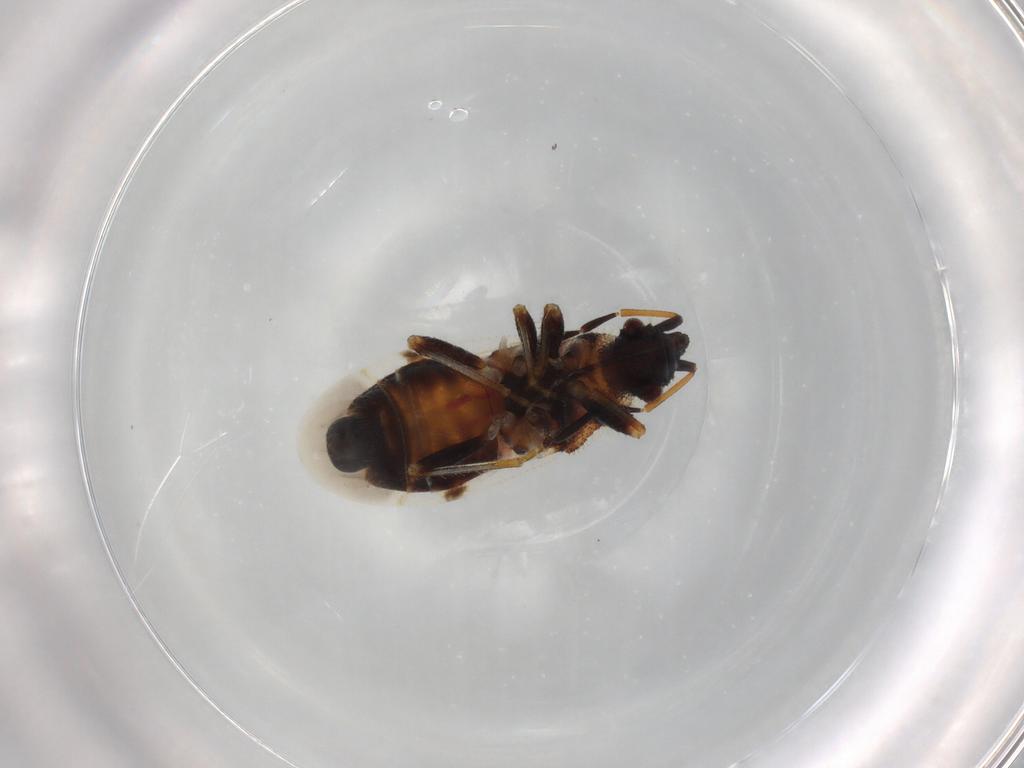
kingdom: Animalia
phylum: Arthropoda
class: Insecta
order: Hemiptera
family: Oxycarenidae
